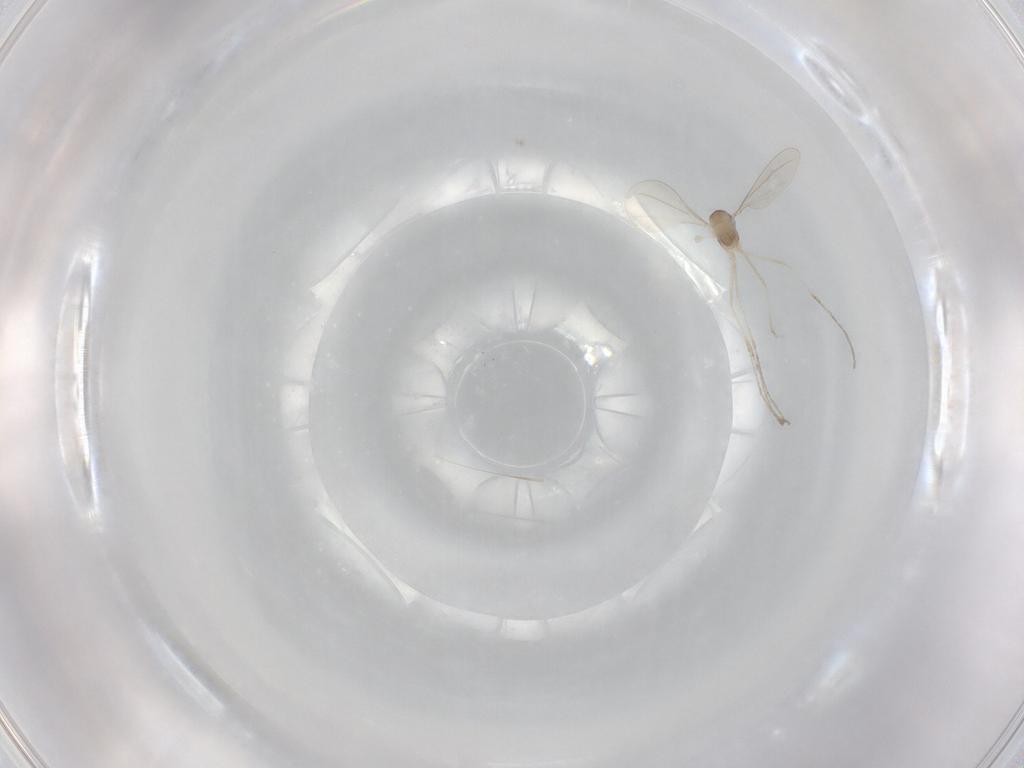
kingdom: Animalia
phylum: Arthropoda
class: Insecta
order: Diptera
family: Cecidomyiidae
